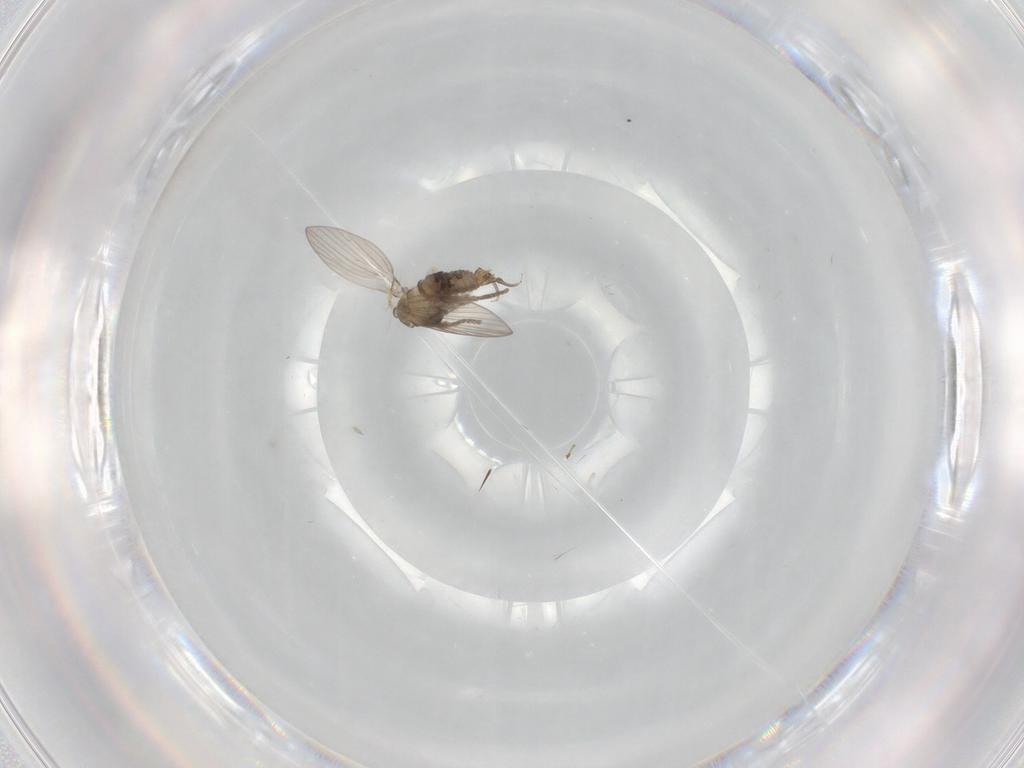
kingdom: Animalia
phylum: Arthropoda
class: Insecta
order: Diptera
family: Psychodidae
